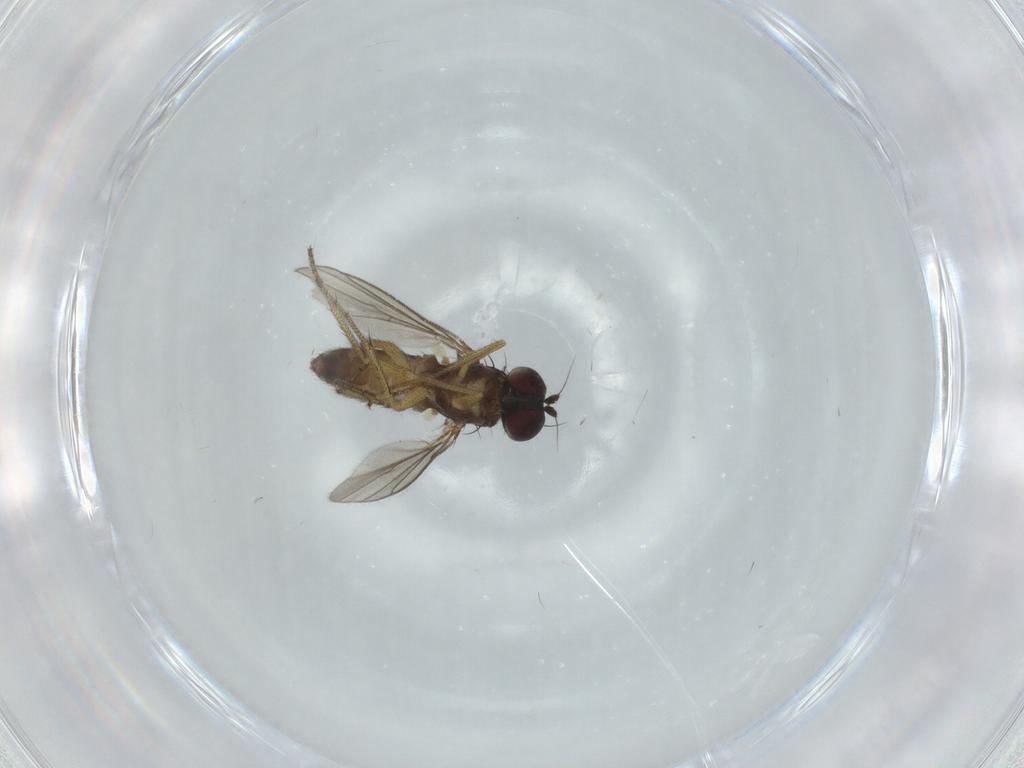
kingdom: Animalia
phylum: Arthropoda
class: Insecta
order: Diptera
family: Dolichopodidae
